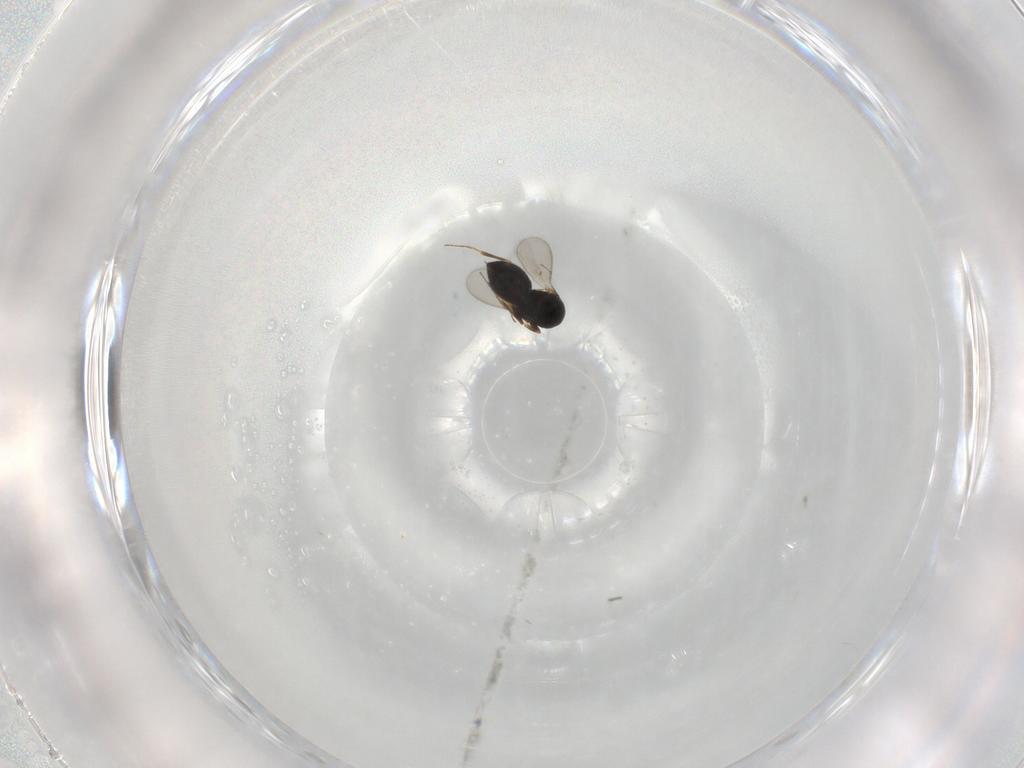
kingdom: Animalia
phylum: Arthropoda
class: Insecta
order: Hymenoptera
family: Scelionidae
